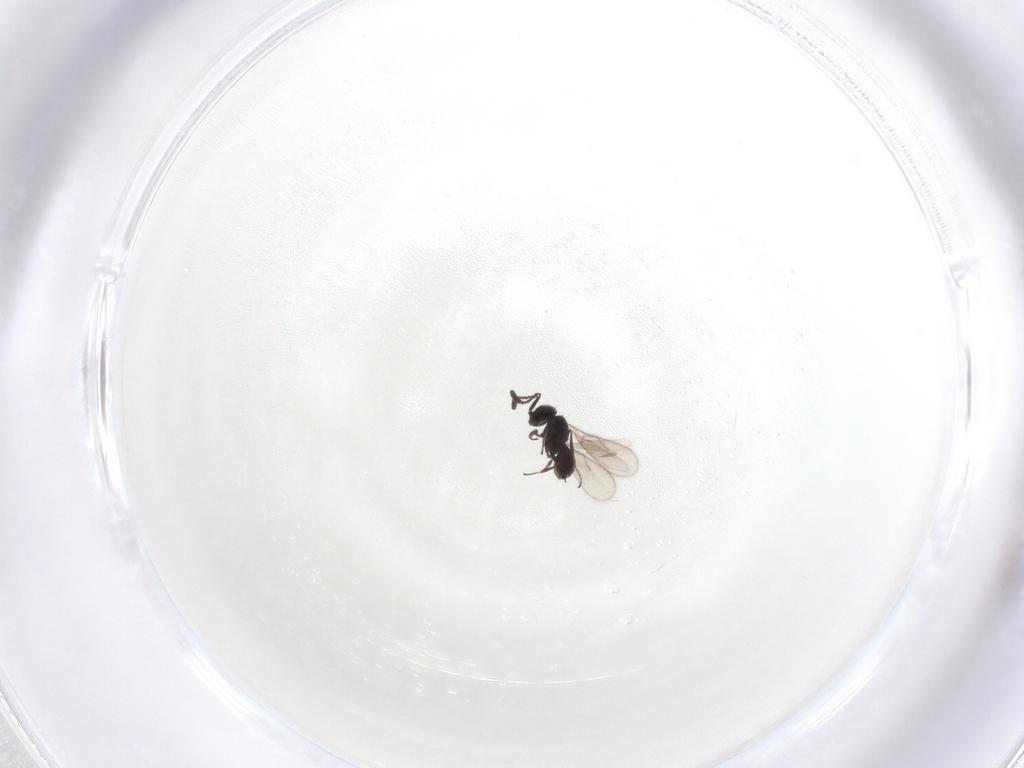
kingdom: Animalia
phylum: Arthropoda
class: Insecta
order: Hymenoptera
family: Scelionidae
